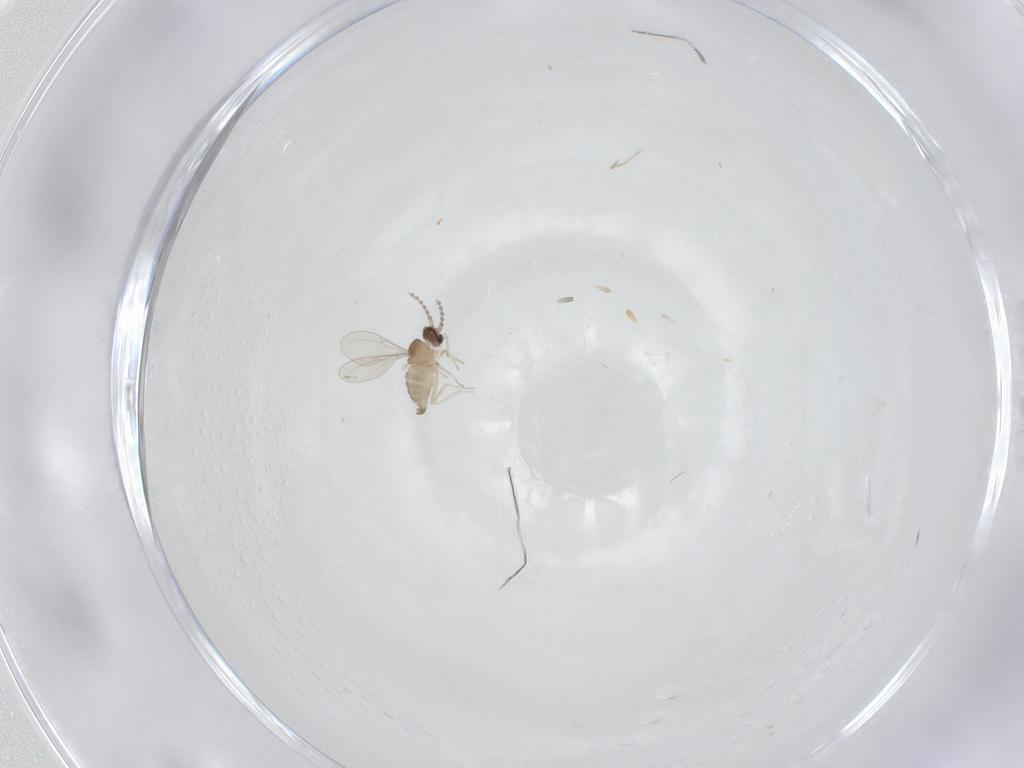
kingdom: Animalia
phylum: Arthropoda
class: Insecta
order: Diptera
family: Cecidomyiidae
